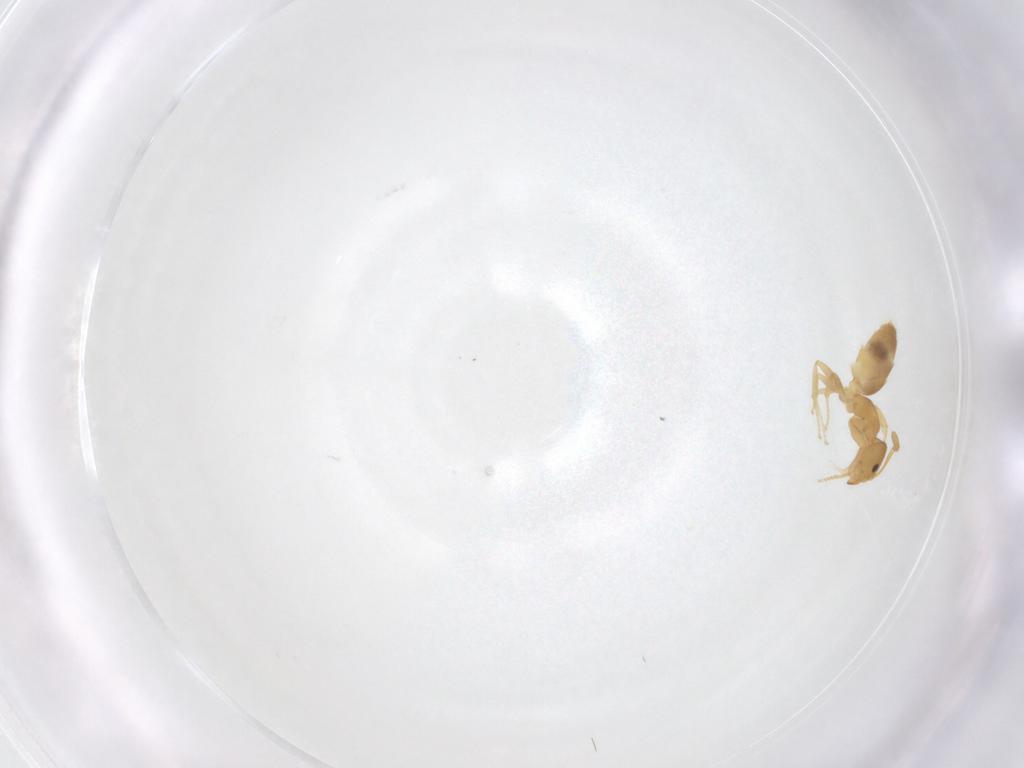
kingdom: Animalia
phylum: Arthropoda
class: Insecta
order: Hymenoptera
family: Formicidae
